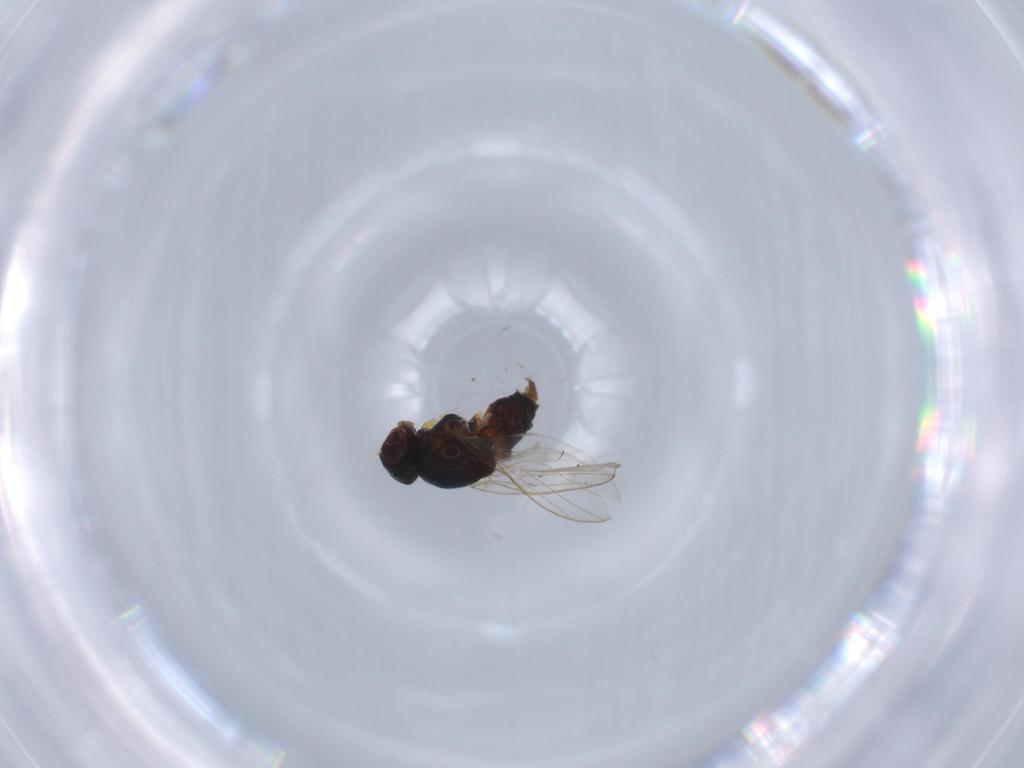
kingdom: Animalia
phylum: Arthropoda
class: Insecta
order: Diptera
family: Chloropidae
